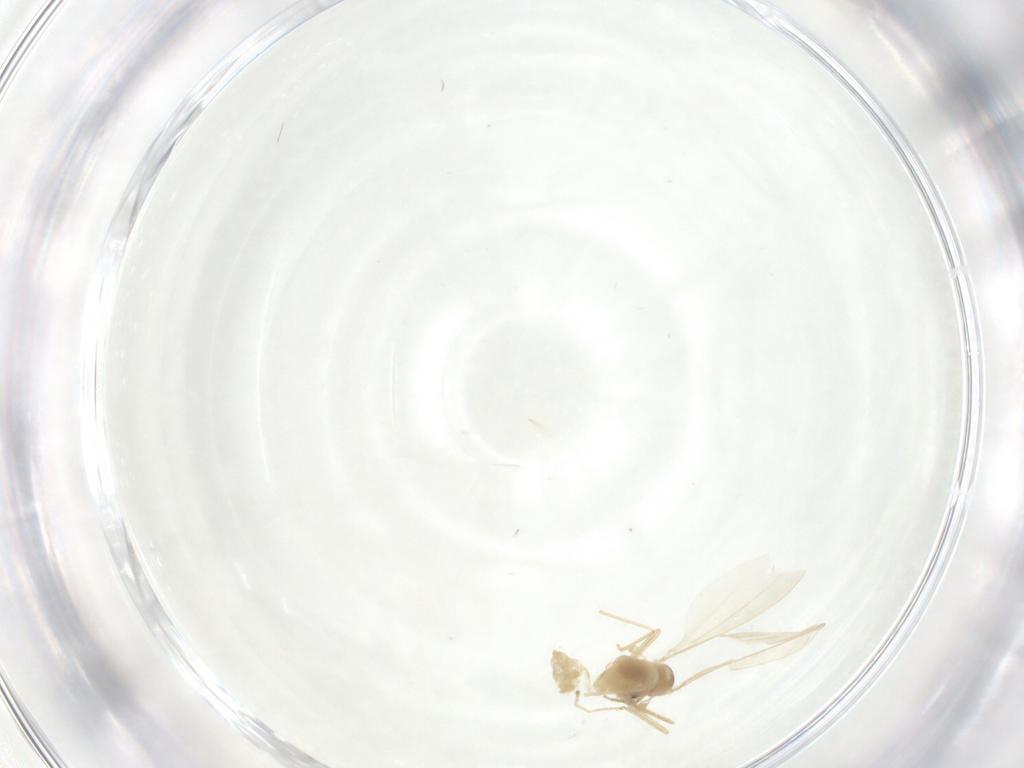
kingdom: Animalia
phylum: Arthropoda
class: Insecta
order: Diptera
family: Cecidomyiidae
